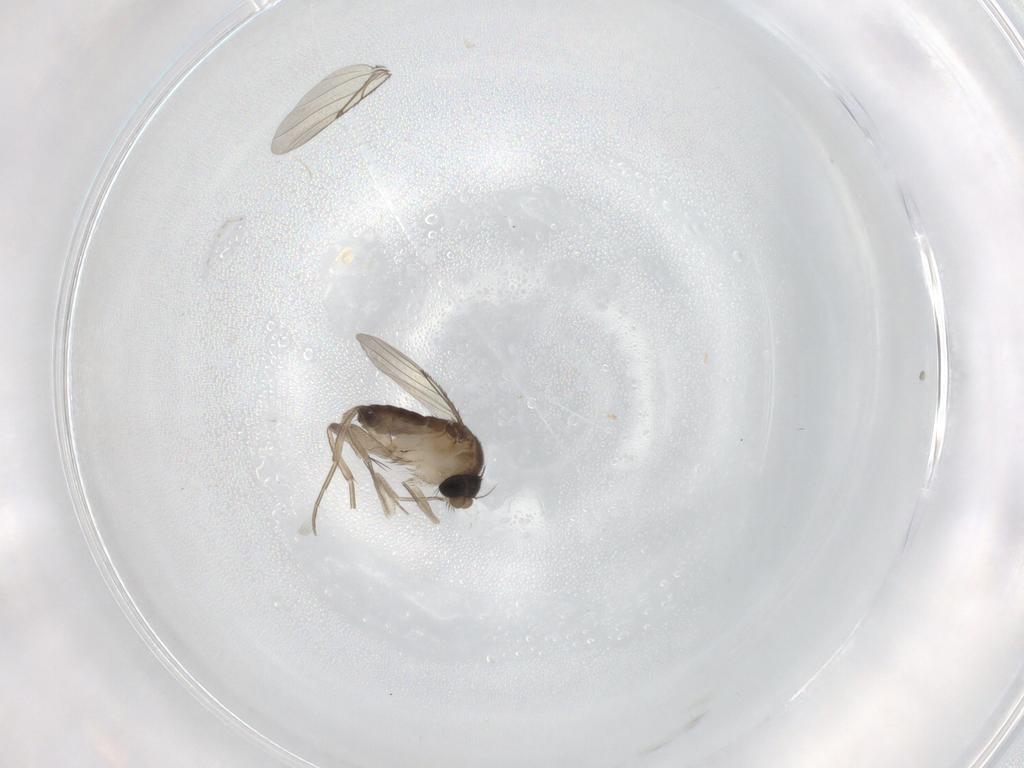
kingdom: Animalia
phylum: Arthropoda
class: Insecta
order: Diptera
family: Phoridae
